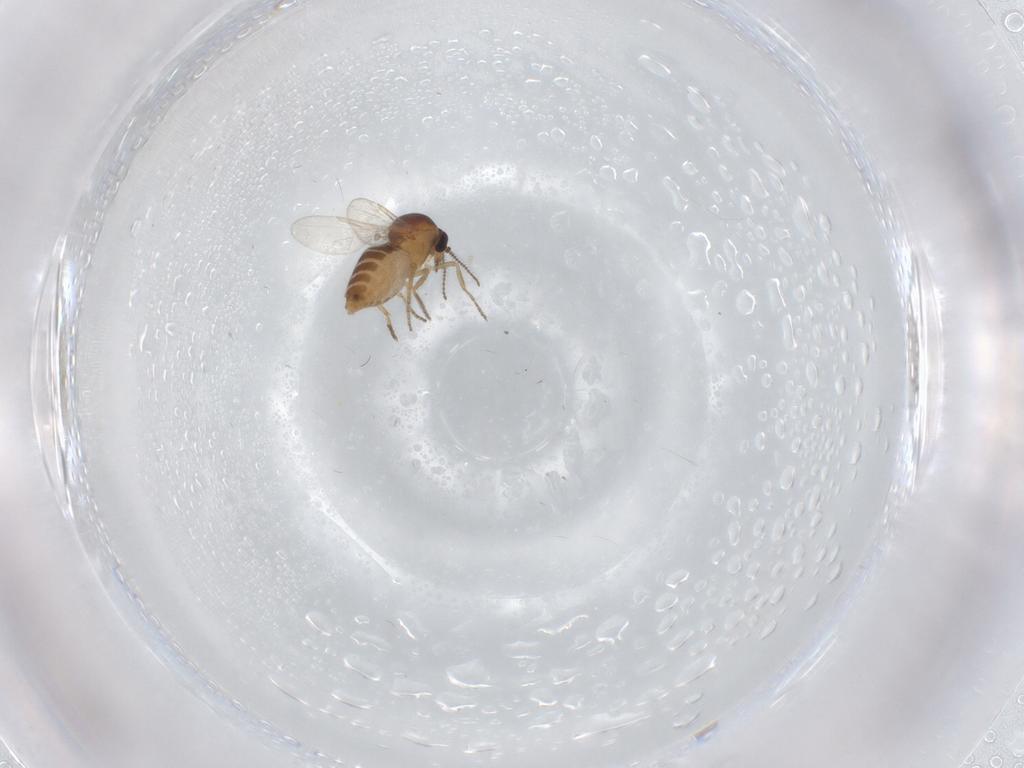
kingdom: Animalia
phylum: Arthropoda
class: Insecta
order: Diptera
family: Ceratopogonidae
